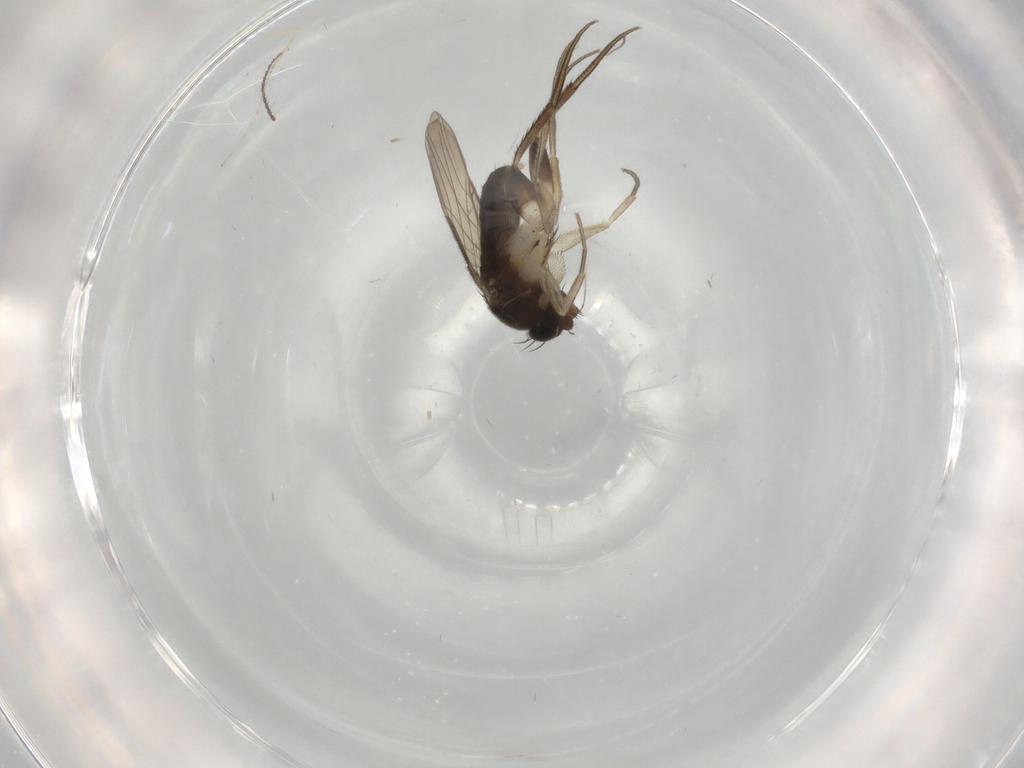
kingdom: Animalia
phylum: Arthropoda
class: Insecta
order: Diptera
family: Phoridae
